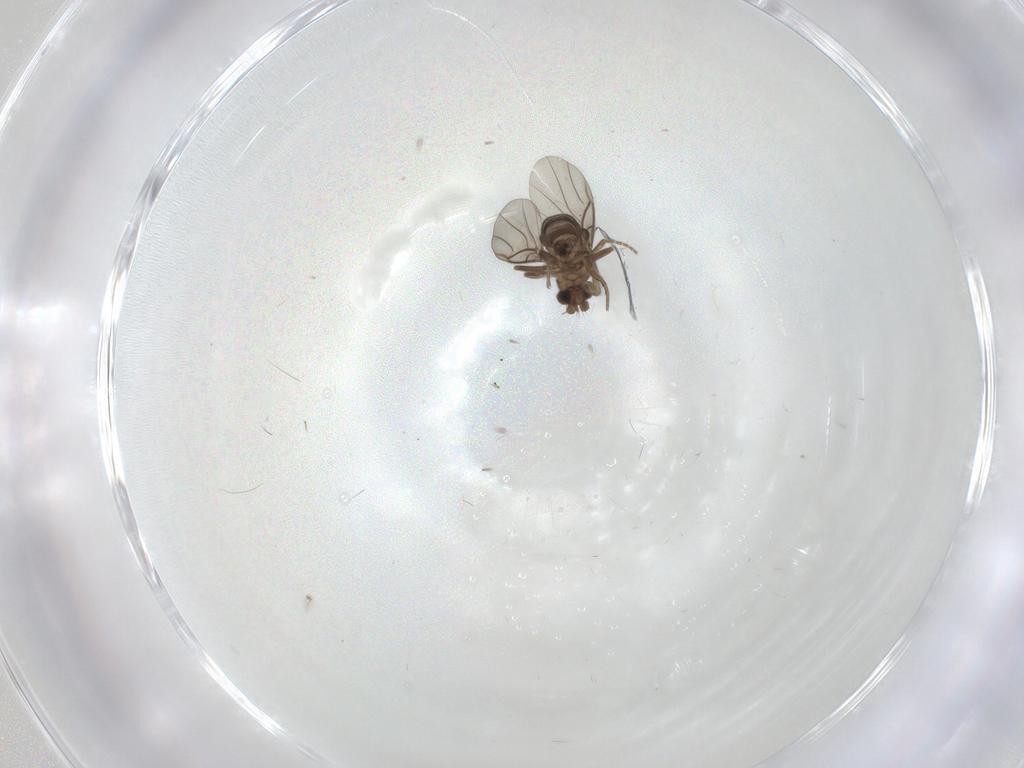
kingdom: Animalia
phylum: Arthropoda
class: Insecta
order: Diptera
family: Phoridae
